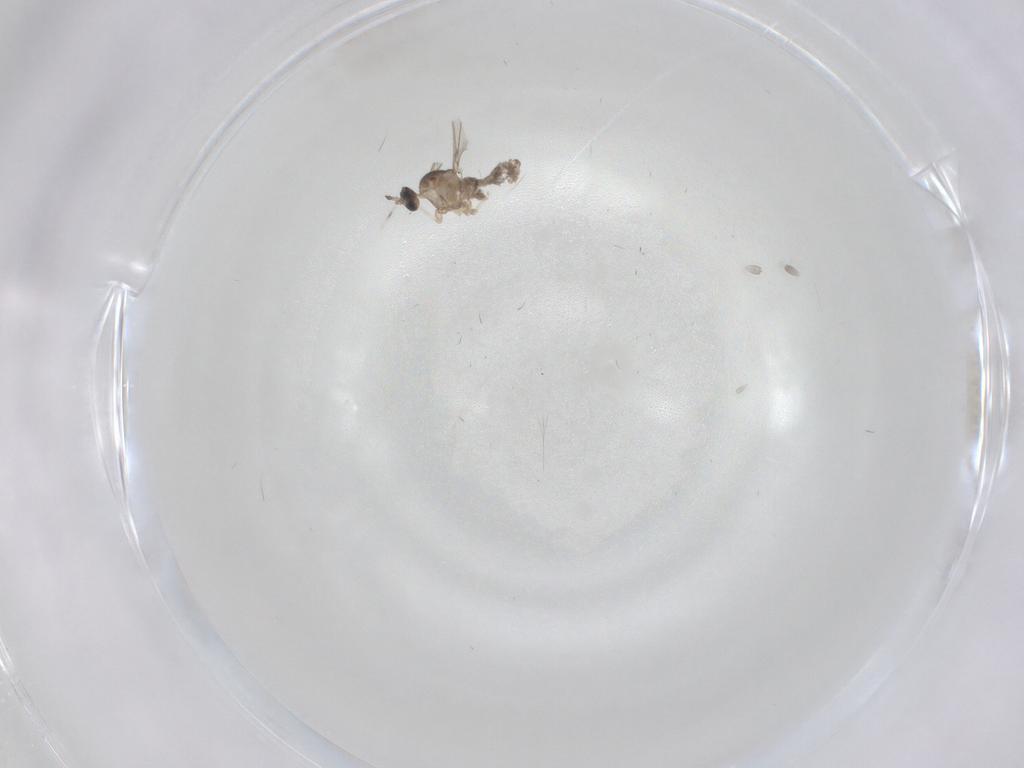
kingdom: Animalia
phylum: Arthropoda
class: Insecta
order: Diptera
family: Cecidomyiidae
